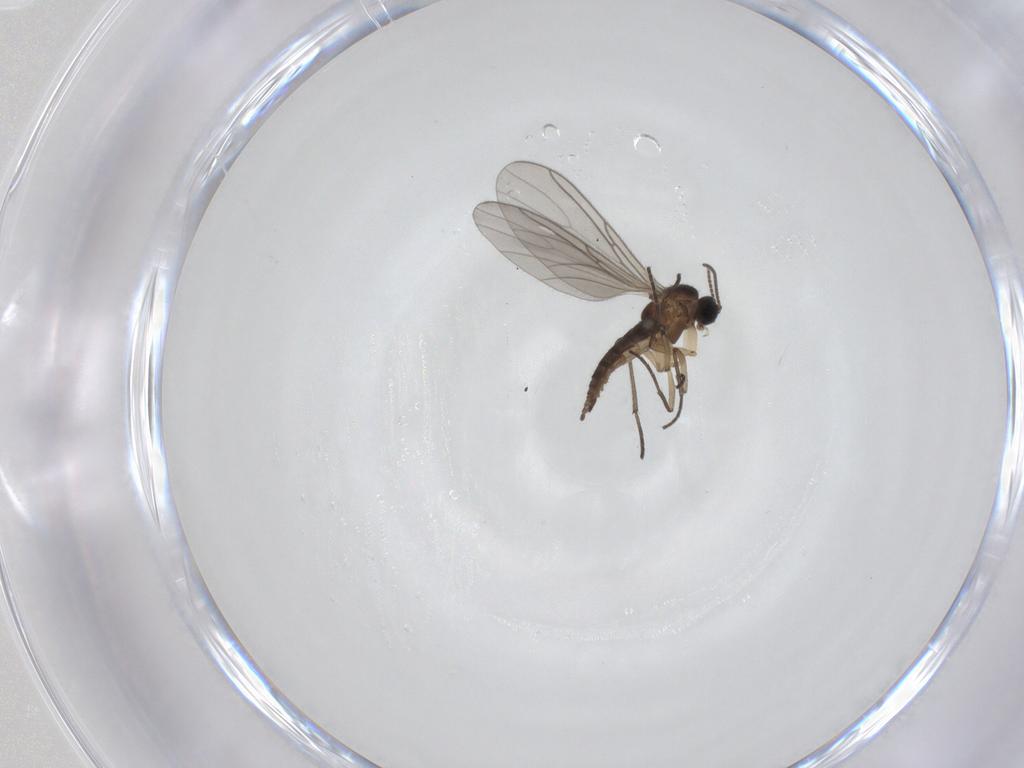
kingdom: Animalia
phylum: Arthropoda
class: Insecta
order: Diptera
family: Sciaridae
